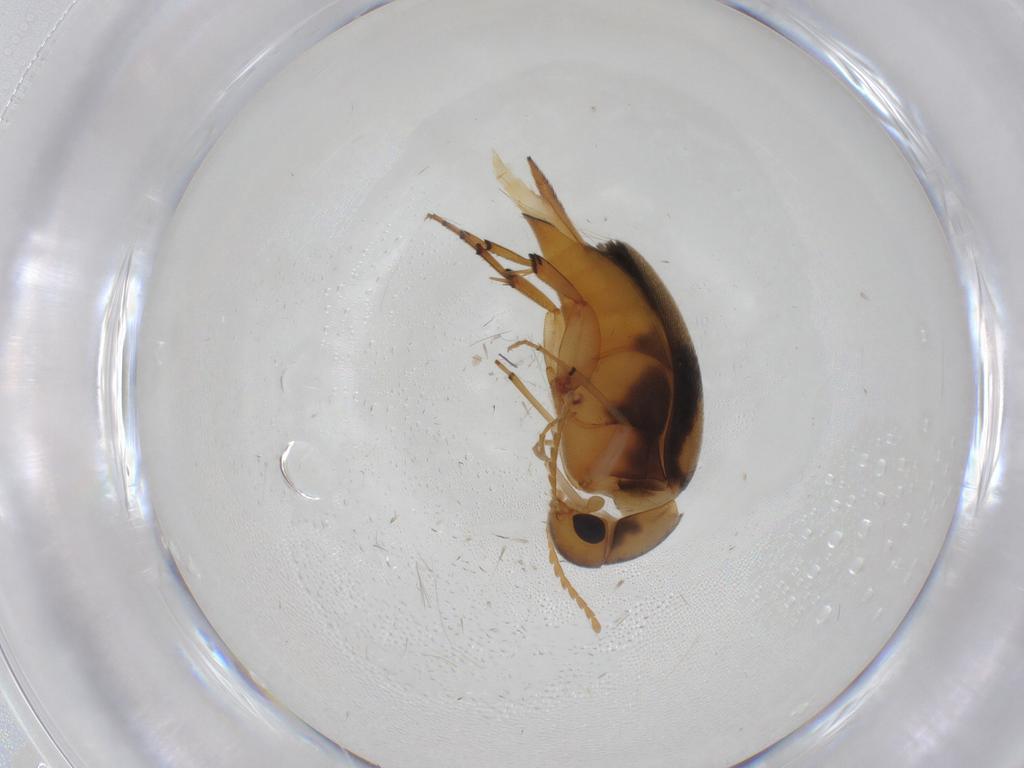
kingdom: Animalia
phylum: Arthropoda
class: Insecta
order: Coleoptera
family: Mordellidae
